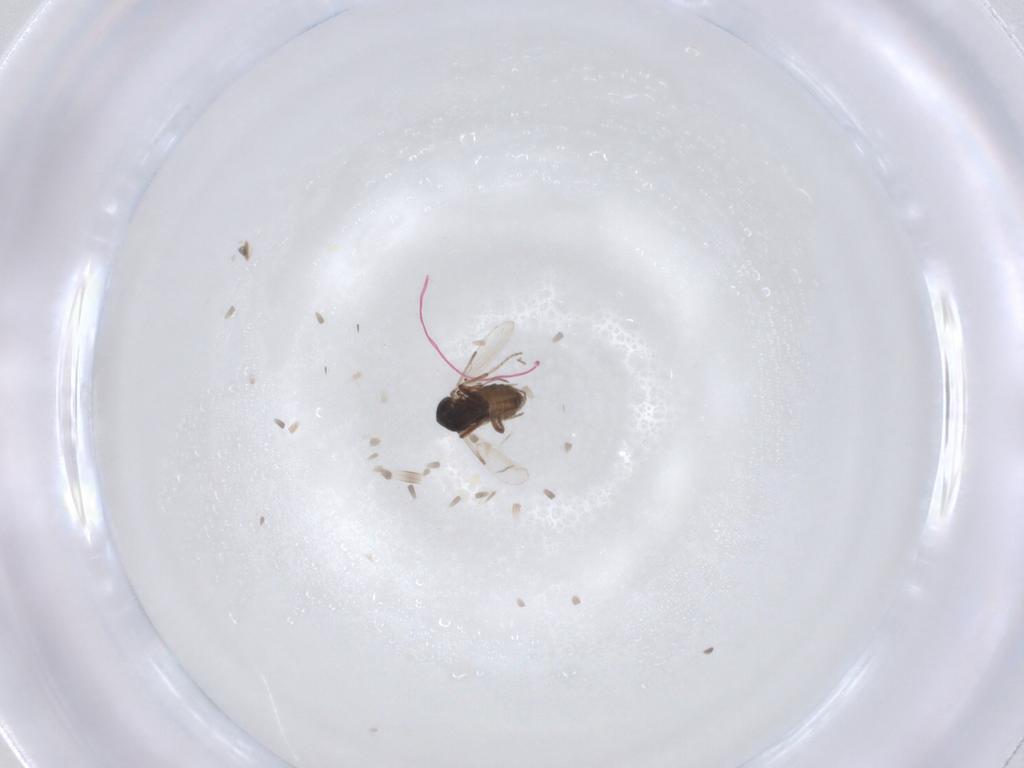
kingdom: Animalia
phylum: Arthropoda
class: Insecta
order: Diptera
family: Ceratopogonidae
